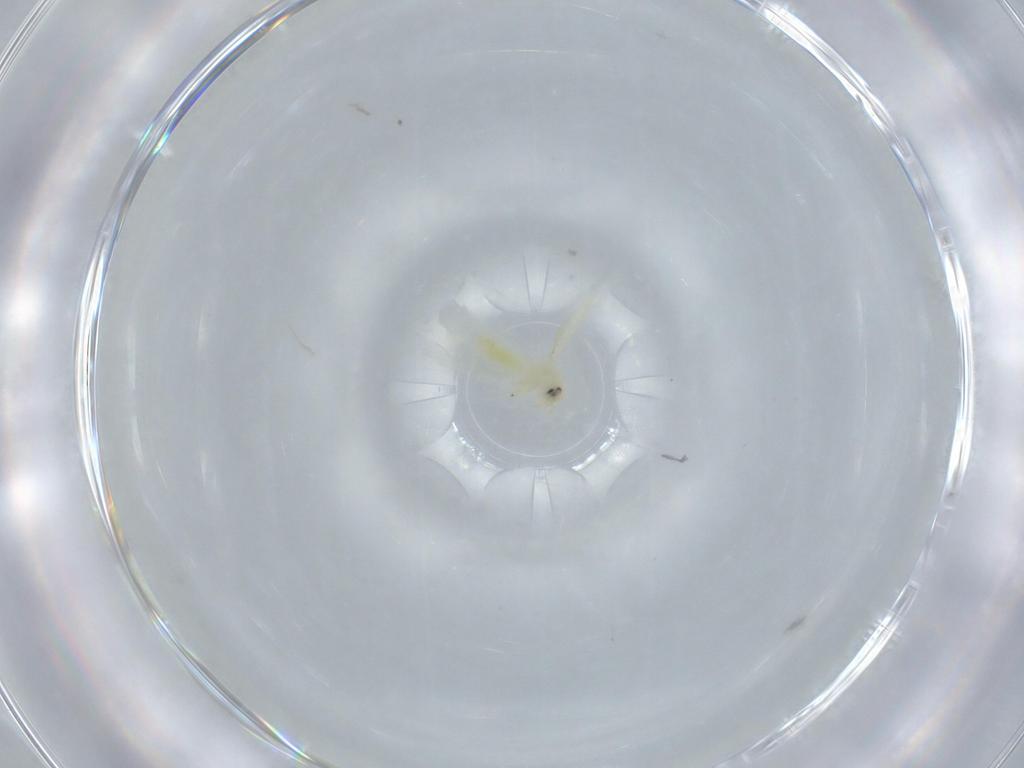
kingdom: Animalia
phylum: Arthropoda
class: Insecta
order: Hemiptera
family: Aleyrodidae
